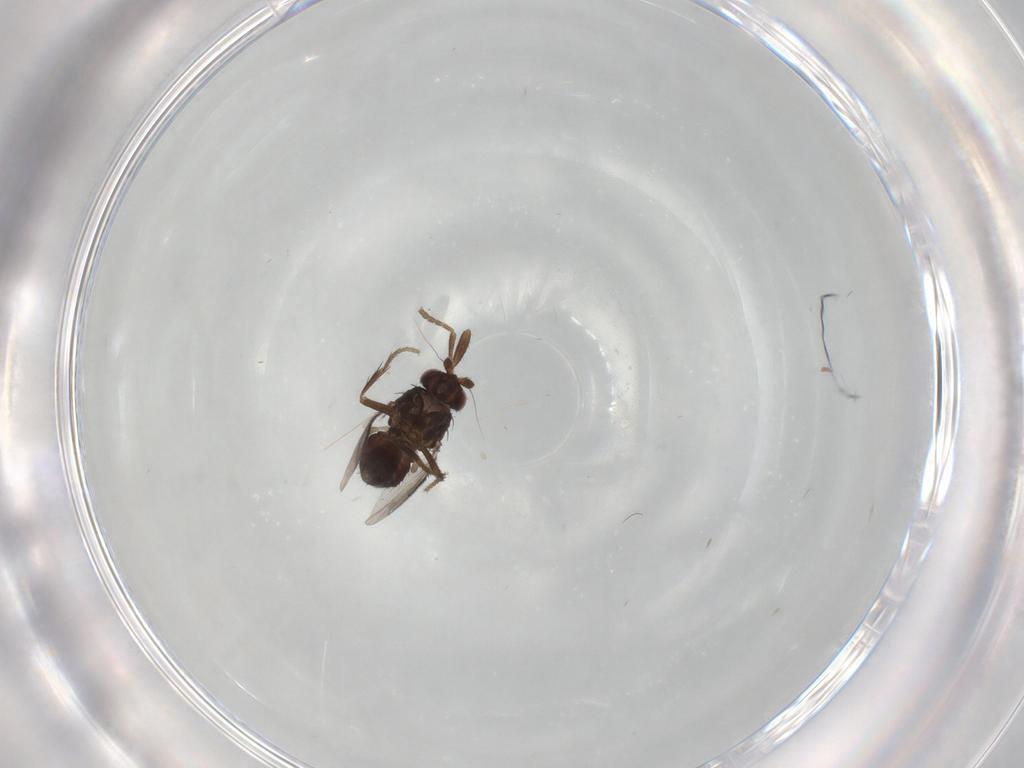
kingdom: Animalia
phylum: Arthropoda
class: Insecta
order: Diptera
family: Sphaeroceridae
